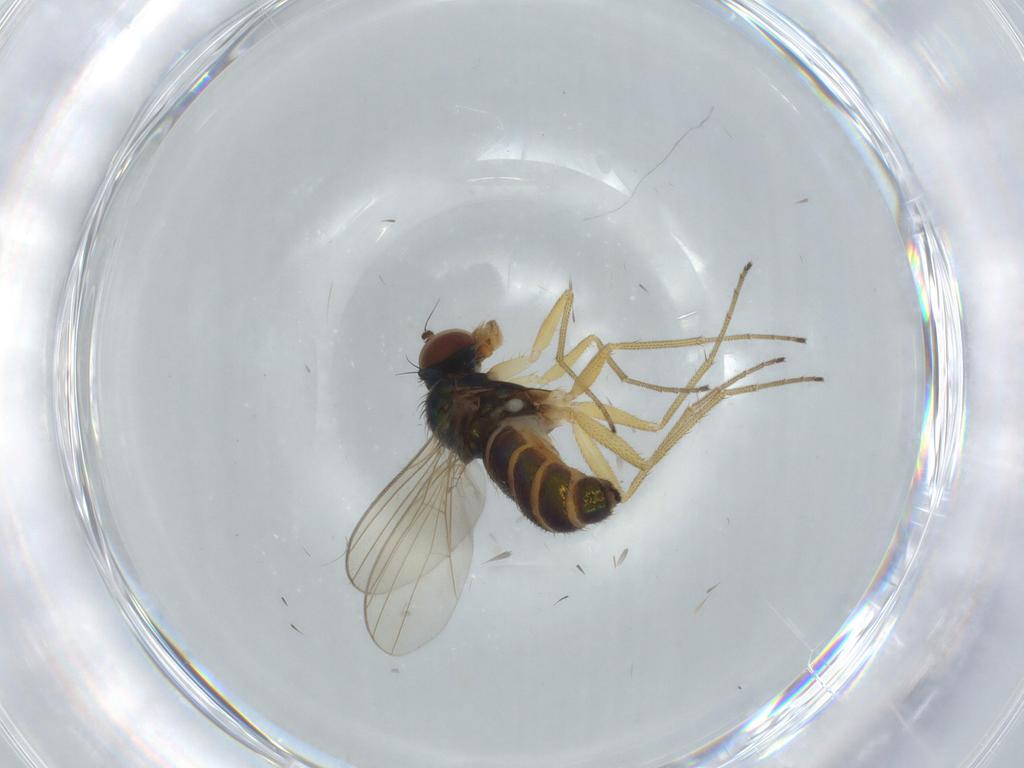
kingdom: Animalia
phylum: Arthropoda
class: Insecta
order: Diptera
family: Dolichopodidae
